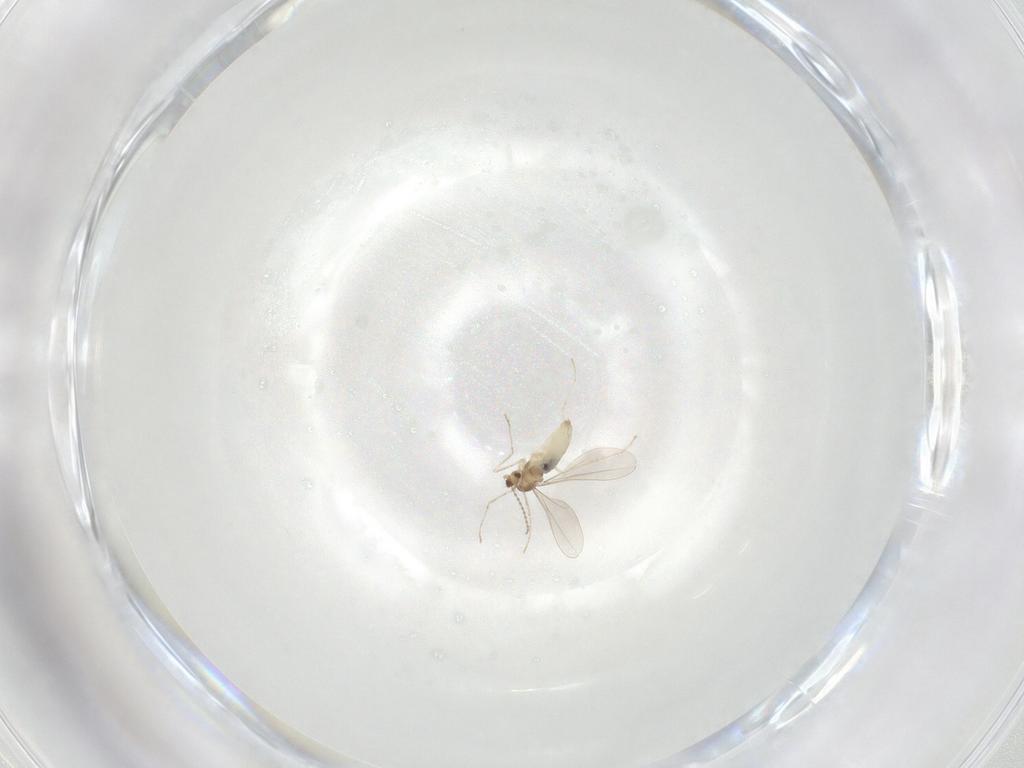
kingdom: Animalia
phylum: Arthropoda
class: Insecta
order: Diptera
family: Cecidomyiidae
